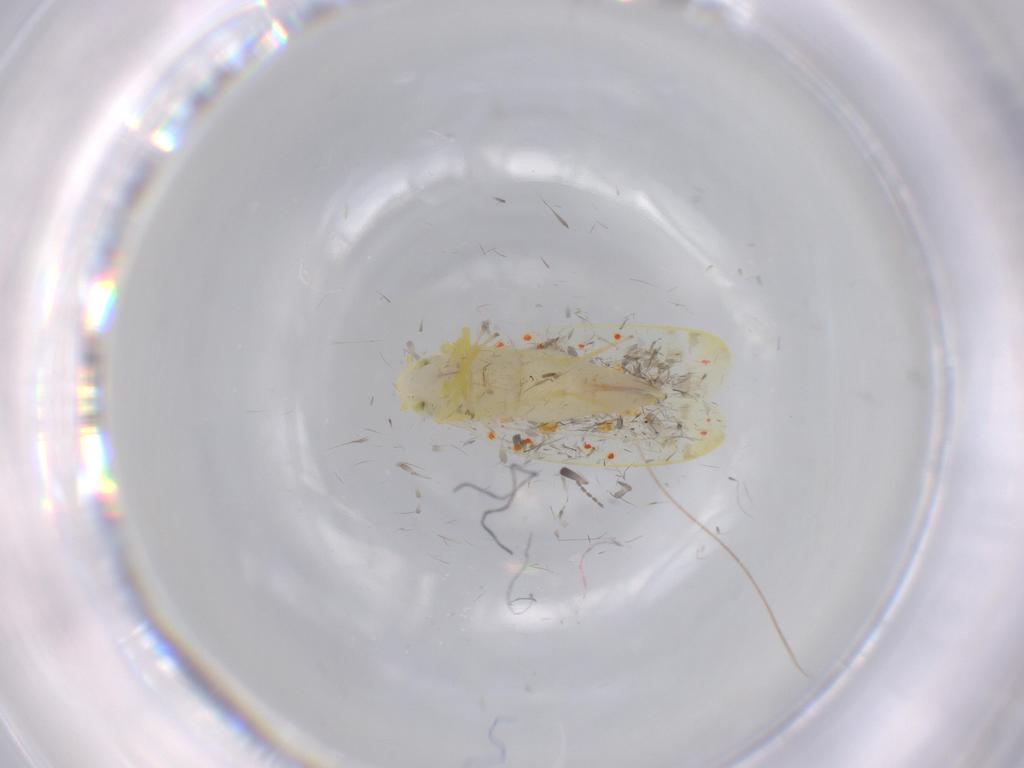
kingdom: Animalia
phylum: Arthropoda
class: Insecta
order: Hemiptera
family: Cicadellidae
